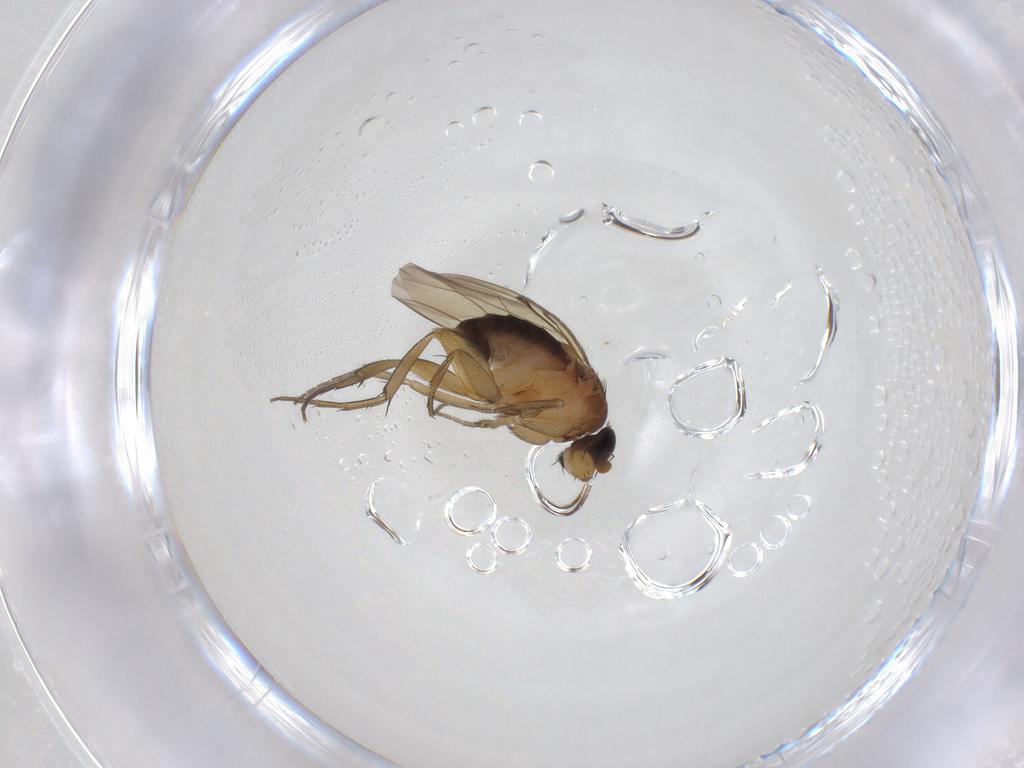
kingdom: Animalia
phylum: Arthropoda
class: Insecta
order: Diptera
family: Phoridae
